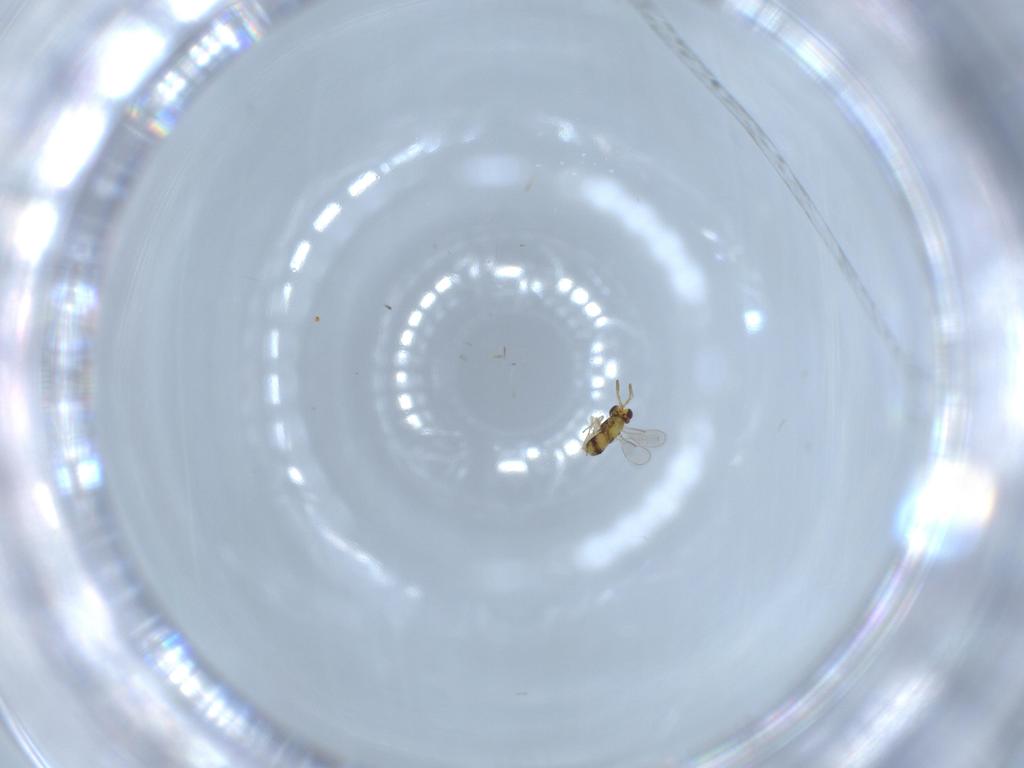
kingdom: Animalia
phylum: Arthropoda
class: Insecta
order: Hymenoptera
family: Aphelinidae
